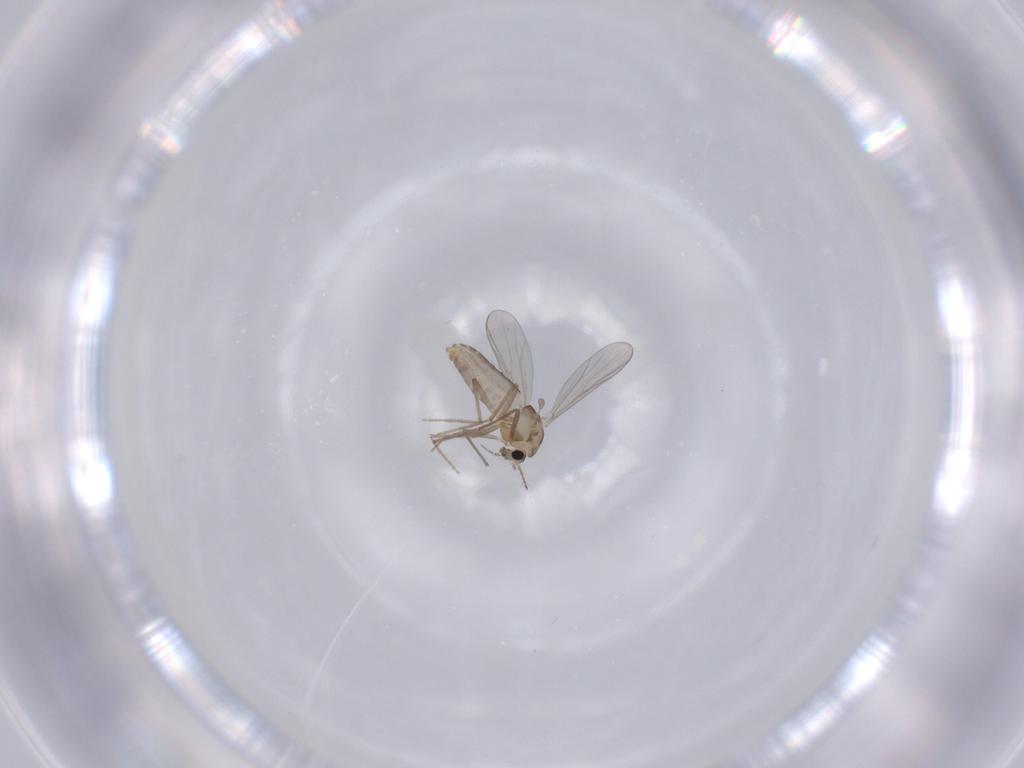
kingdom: Animalia
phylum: Arthropoda
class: Insecta
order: Diptera
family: Chironomidae
